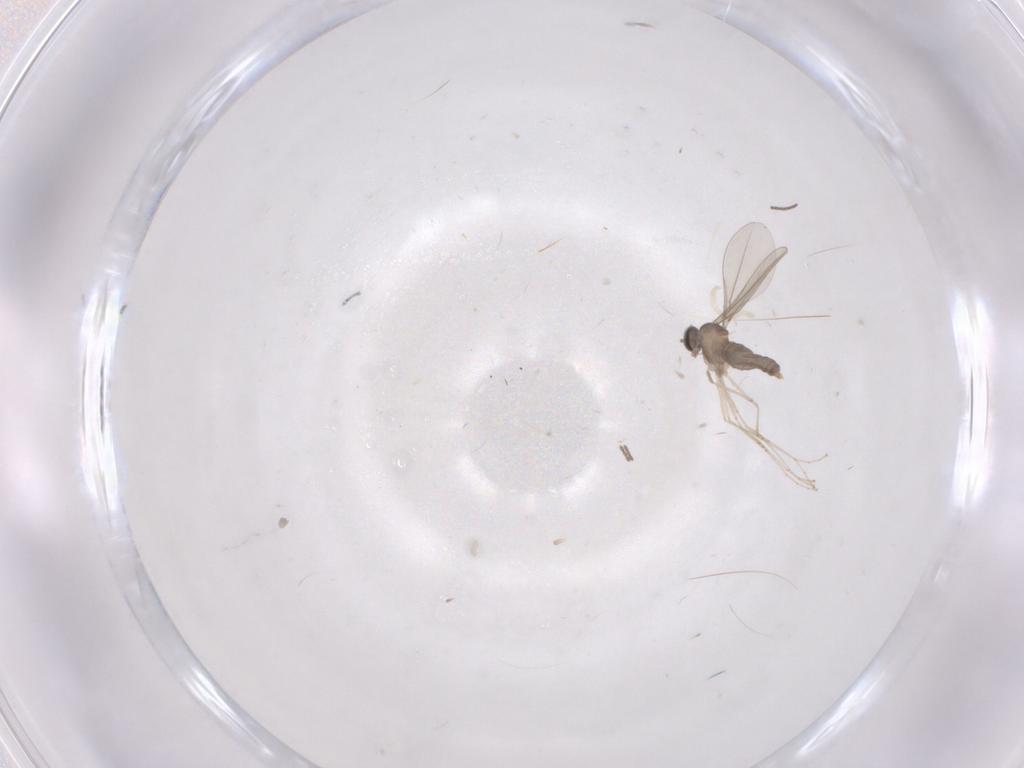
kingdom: Animalia
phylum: Arthropoda
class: Insecta
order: Diptera
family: Cecidomyiidae
